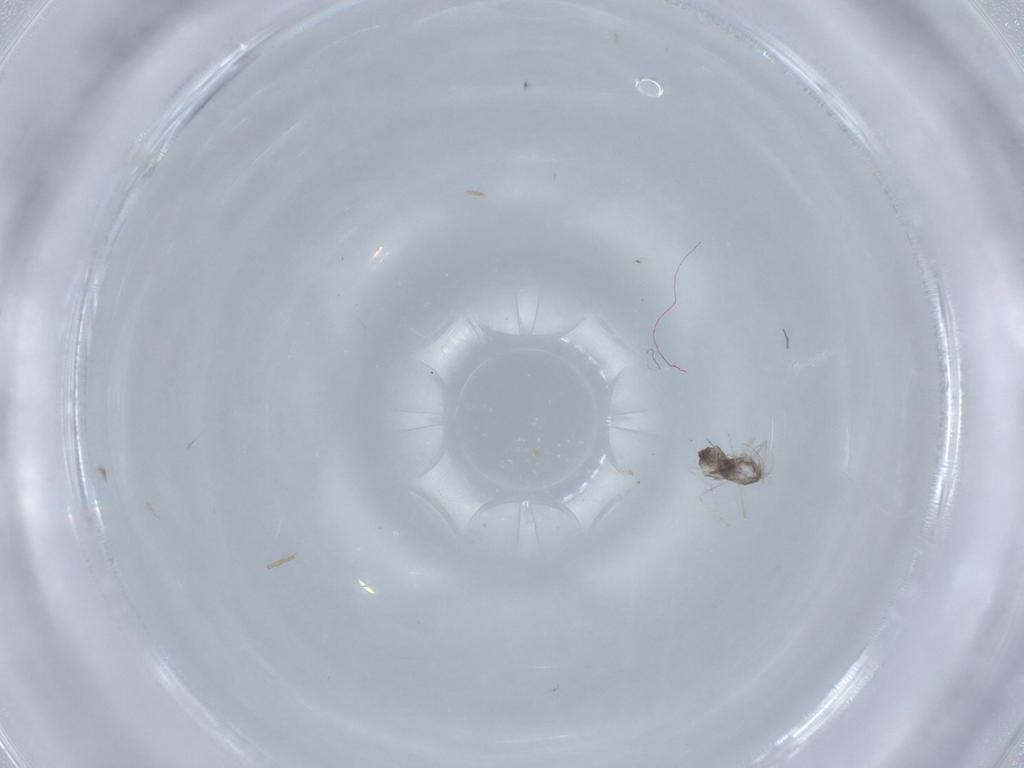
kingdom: Animalia
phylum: Arthropoda
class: Insecta
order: Diptera
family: Cecidomyiidae
